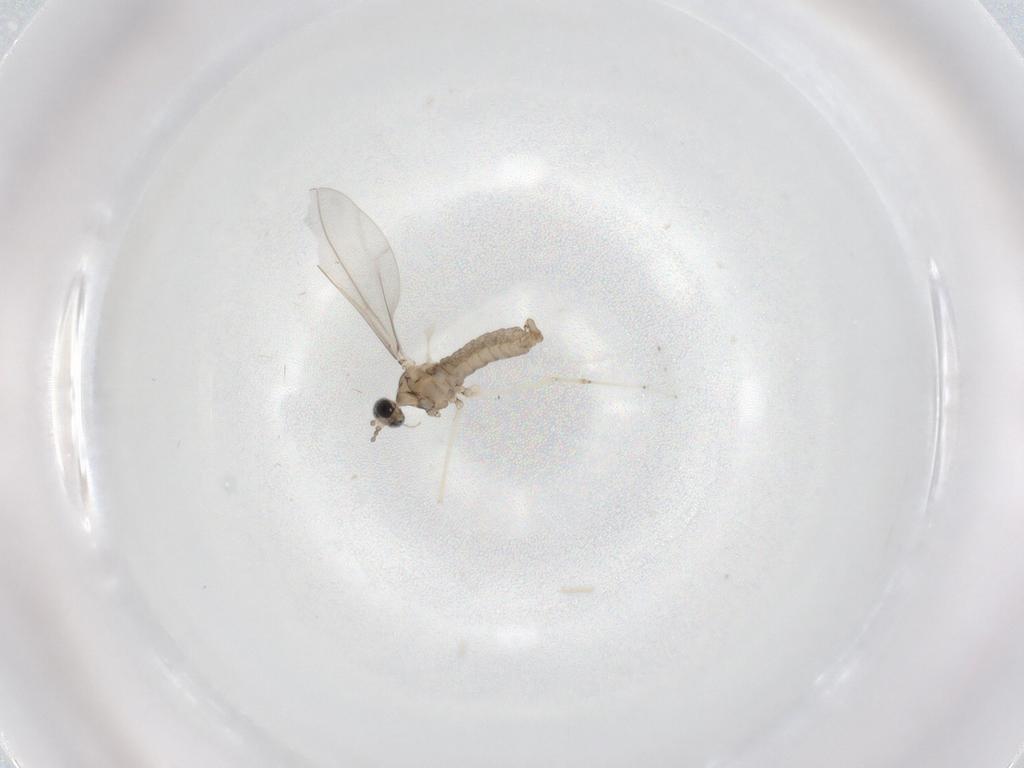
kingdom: Animalia
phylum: Arthropoda
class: Insecta
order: Diptera
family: Cecidomyiidae
